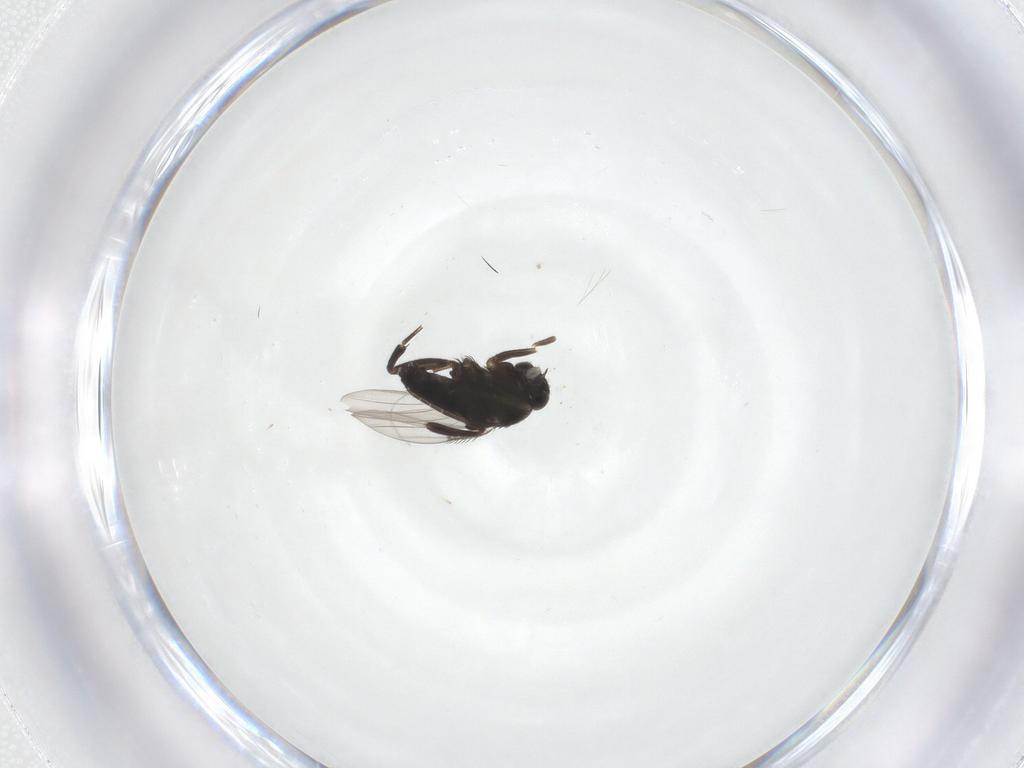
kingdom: Animalia
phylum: Arthropoda
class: Insecta
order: Diptera
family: Phoridae
